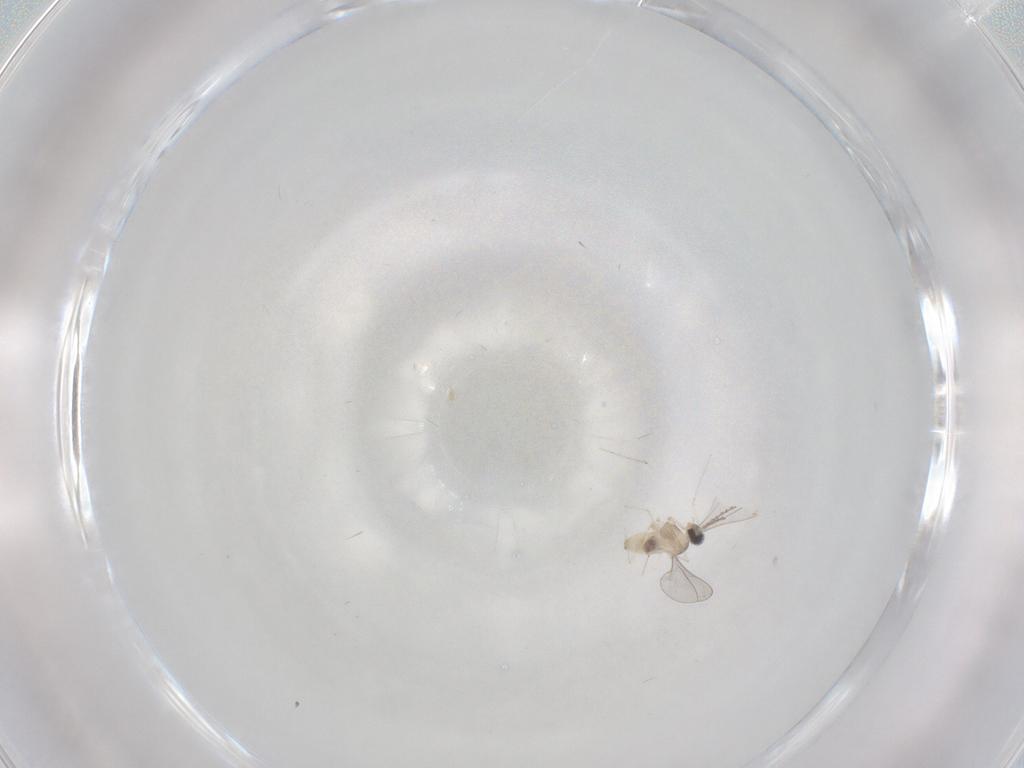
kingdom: Animalia
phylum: Arthropoda
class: Insecta
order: Diptera
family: Cecidomyiidae
